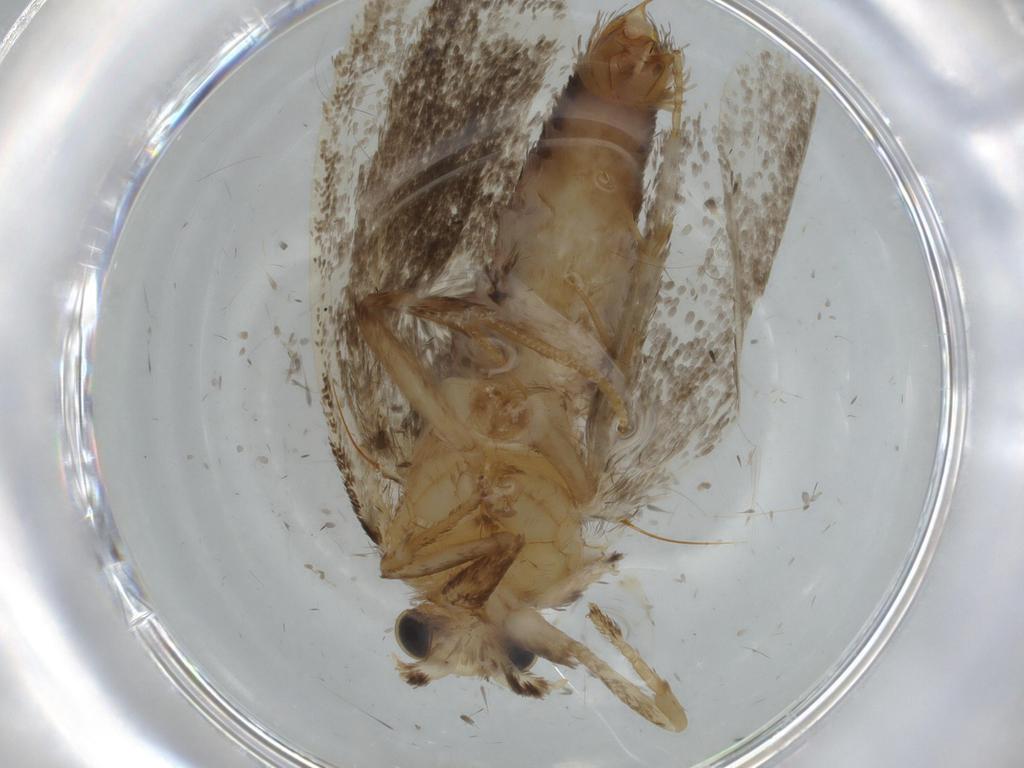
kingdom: Animalia
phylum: Arthropoda
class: Insecta
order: Lepidoptera
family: Tineidae
